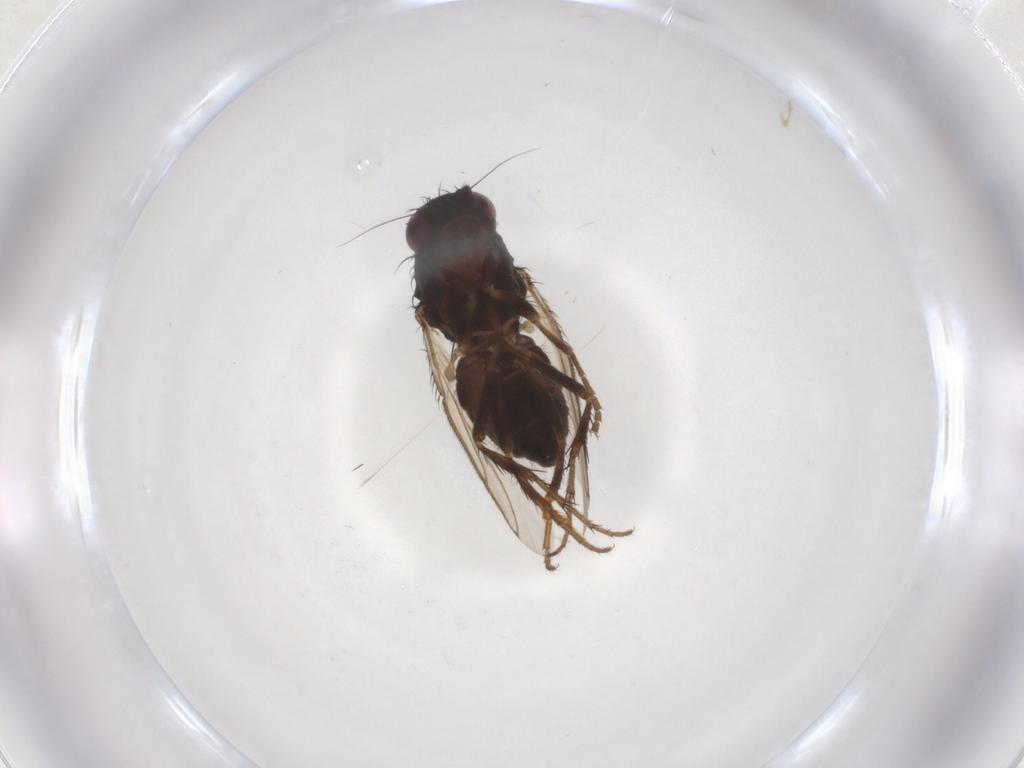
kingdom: Animalia
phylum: Arthropoda
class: Insecta
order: Diptera
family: Sphaeroceridae
